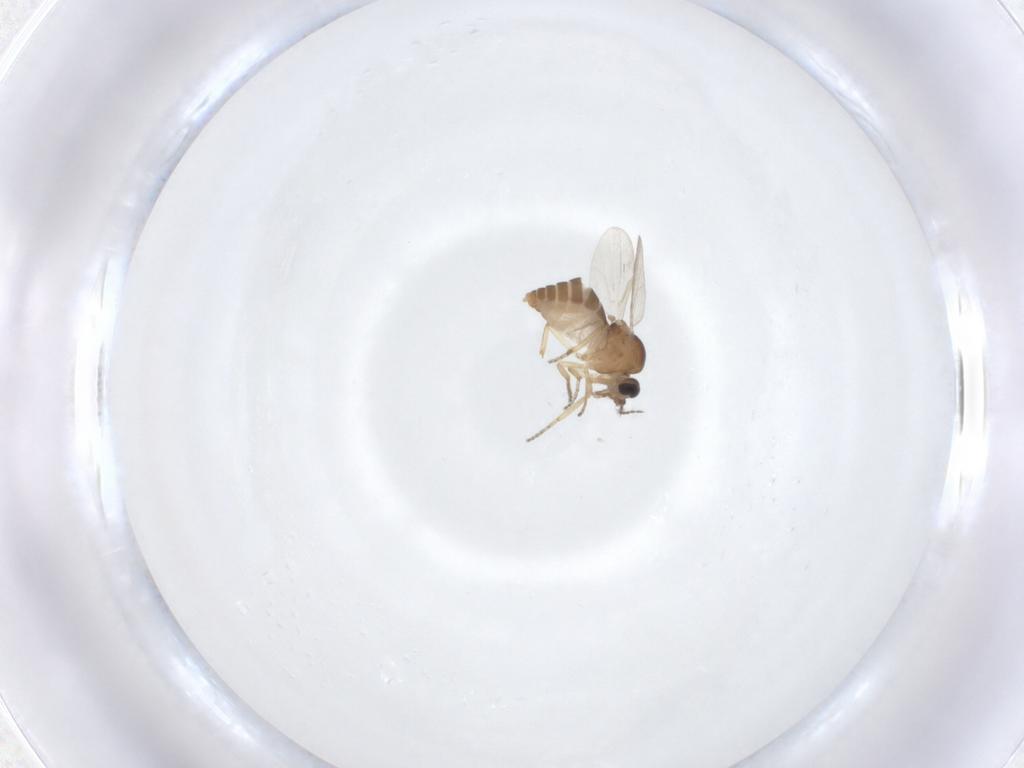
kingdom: Animalia
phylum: Arthropoda
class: Insecta
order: Diptera
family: Ceratopogonidae
